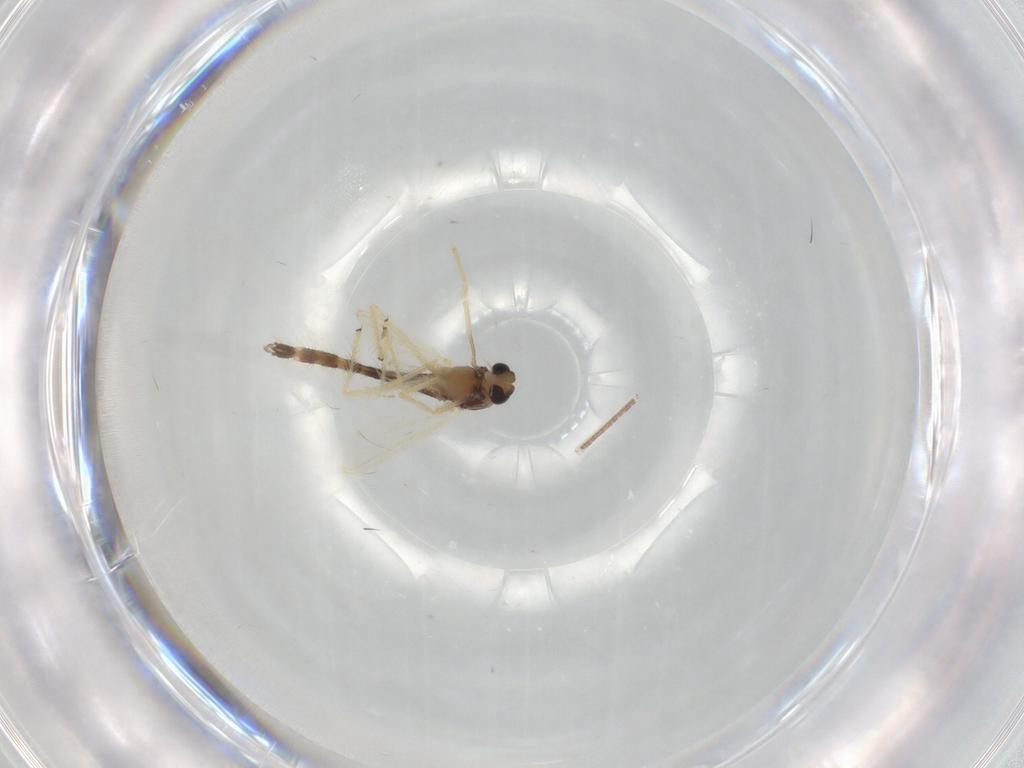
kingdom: Animalia
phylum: Arthropoda
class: Insecta
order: Diptera
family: Chironomidae
